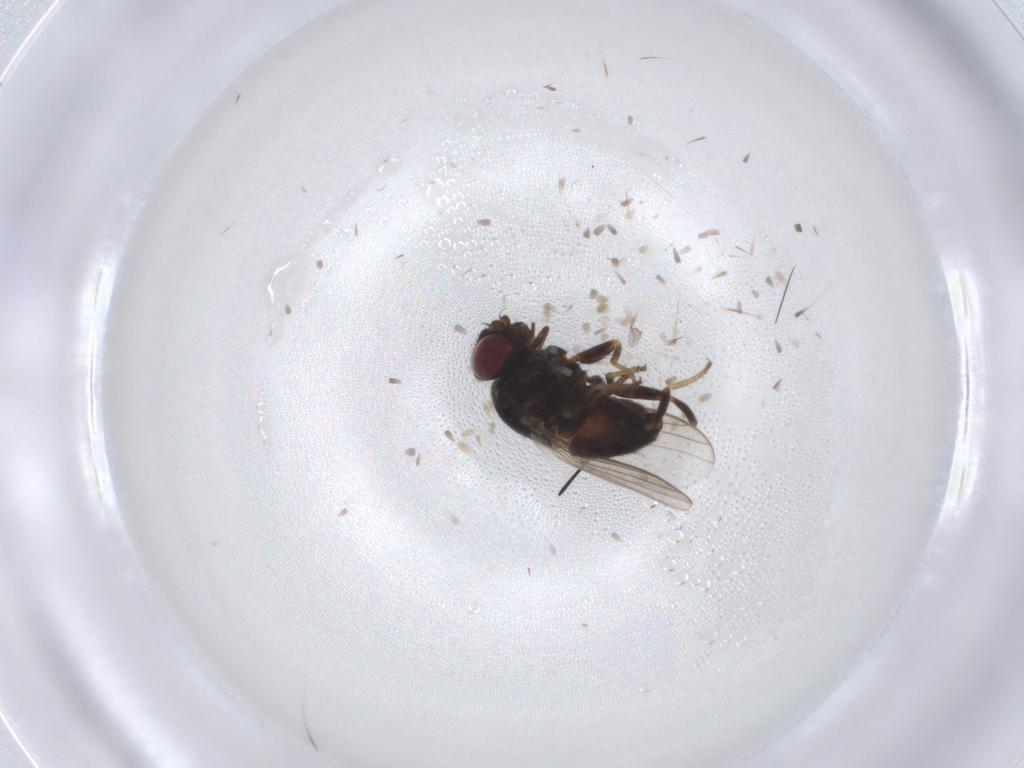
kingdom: Animalia
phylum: Arthropoda
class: Insecta
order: Diptera
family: Chloropidae
